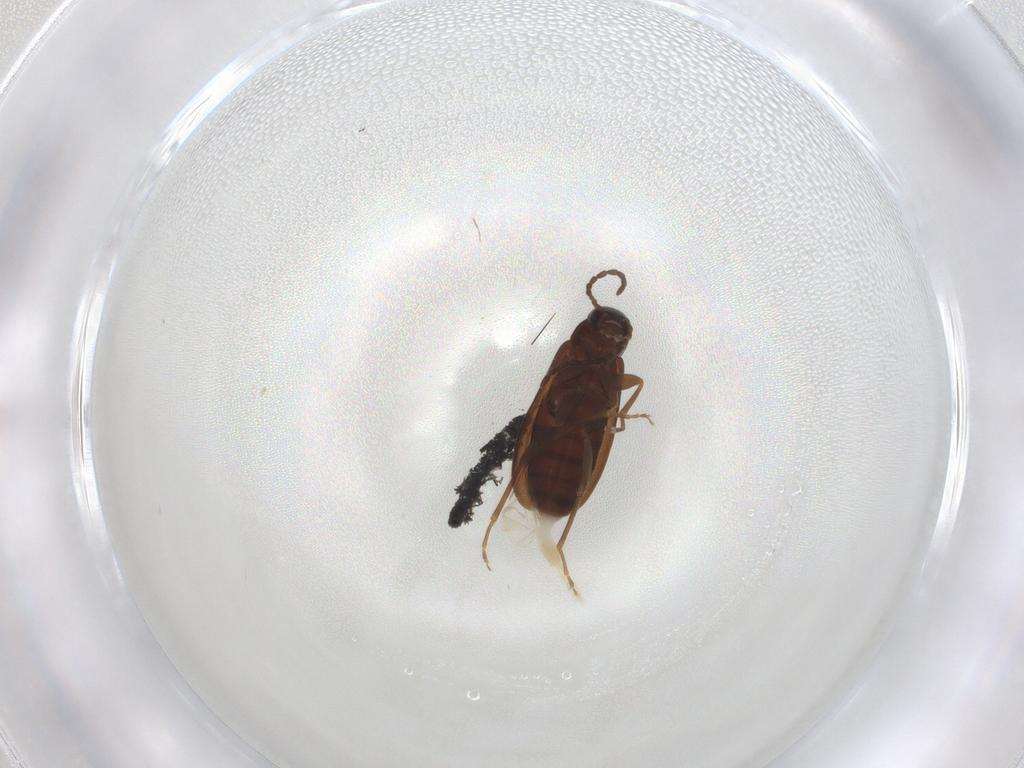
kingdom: Animalia
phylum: Arthropoda
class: Insecta
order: Coleoptera
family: Scraptiidae
